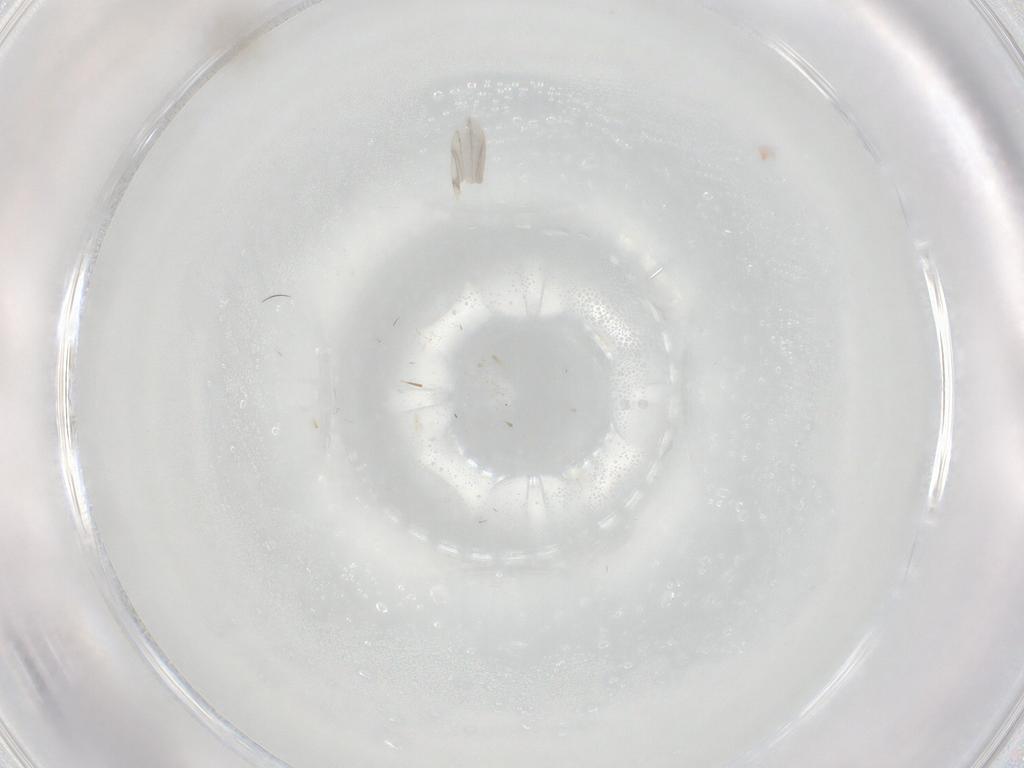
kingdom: Animalia
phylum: Arthropoda
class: Insecta
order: Diptera
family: Cecidomyiidae
